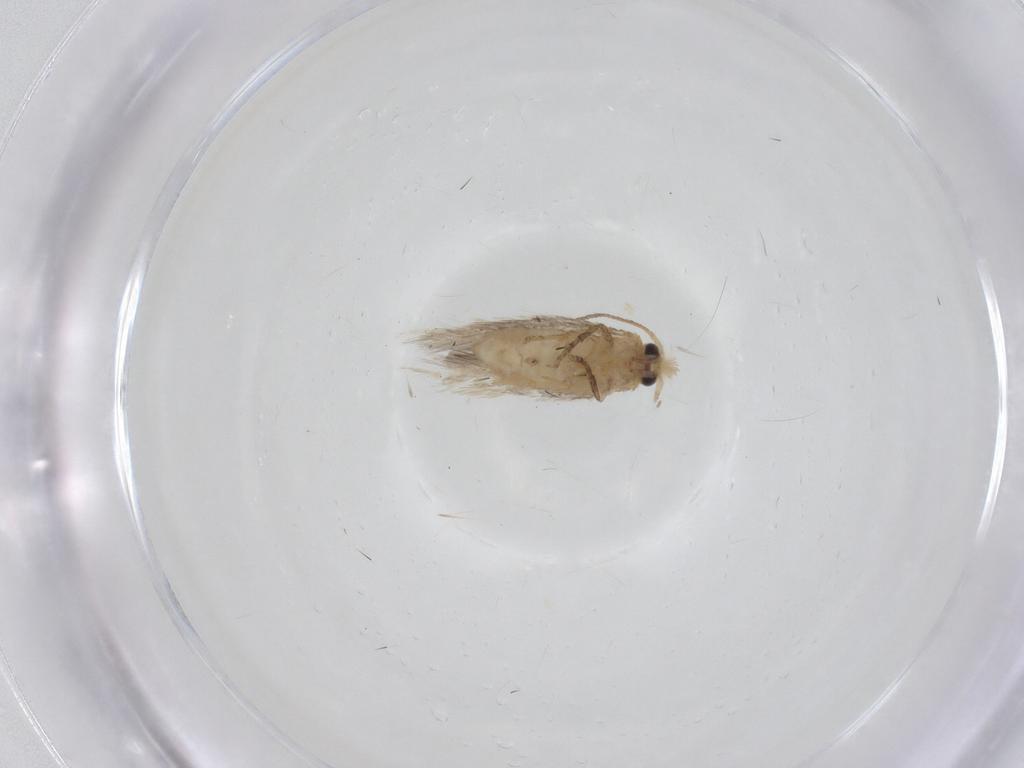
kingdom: Animalia
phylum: Arthropoda
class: Insecta
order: Lepidoptera
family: Nepticulidae
